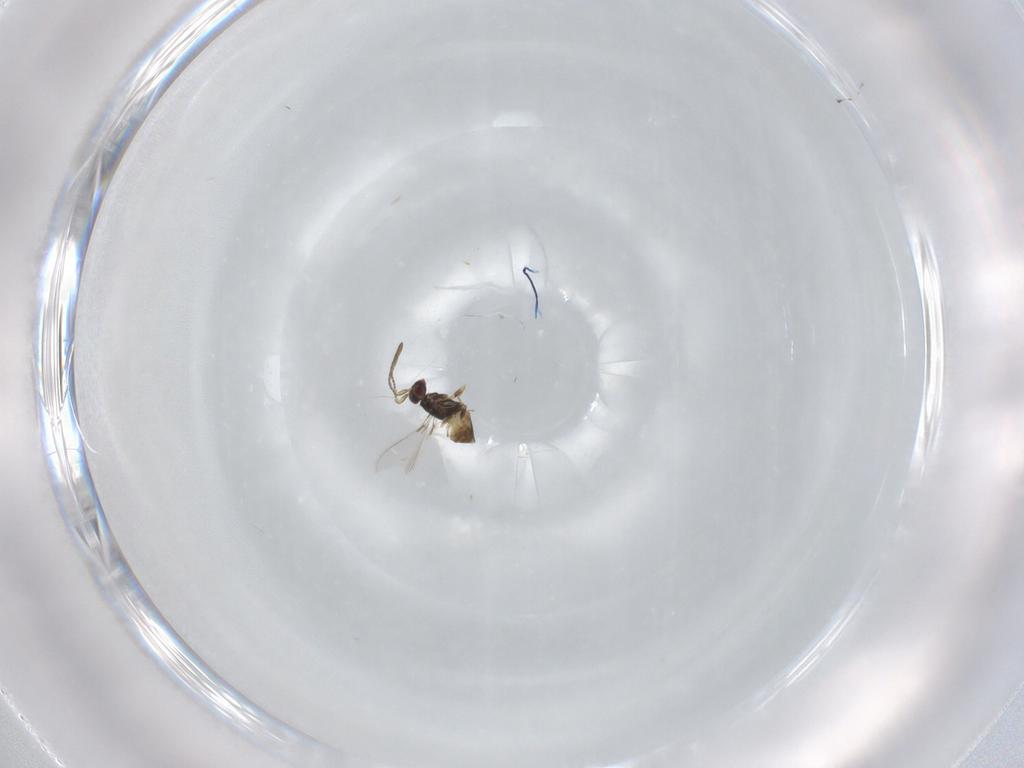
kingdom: Animalia
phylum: Arthropoda
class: Insecta
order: Hymenoptera
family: Mymaridae
